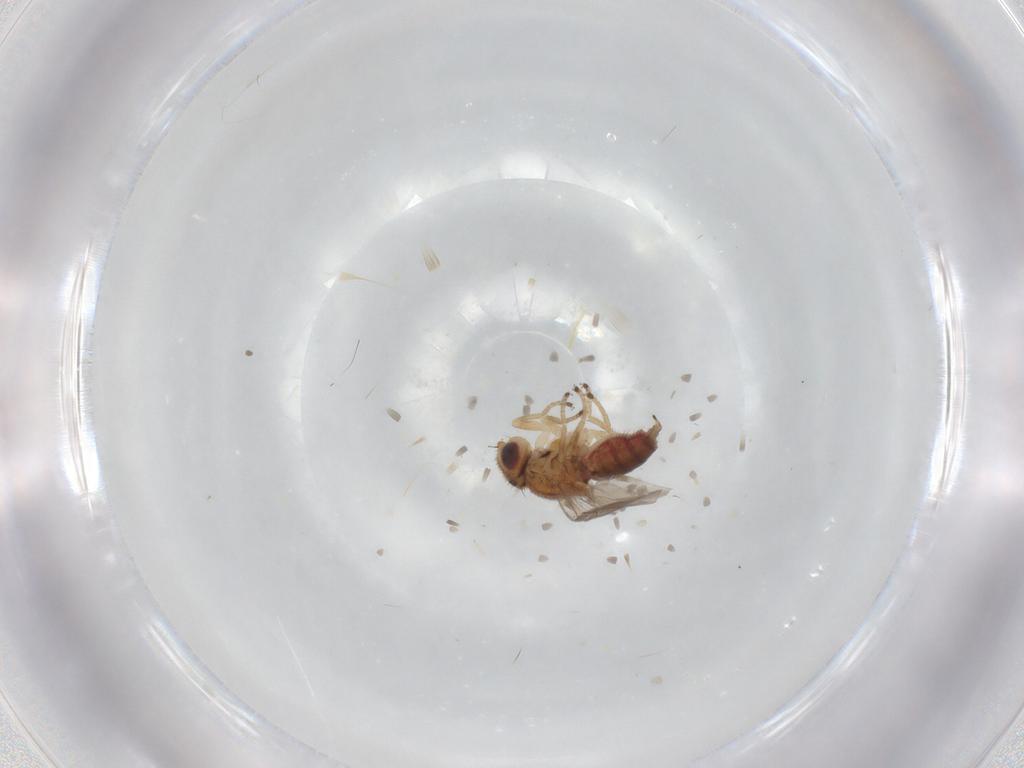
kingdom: Animalia
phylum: Arthropoda
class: Insecta
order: Diptera
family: Chloropidae
